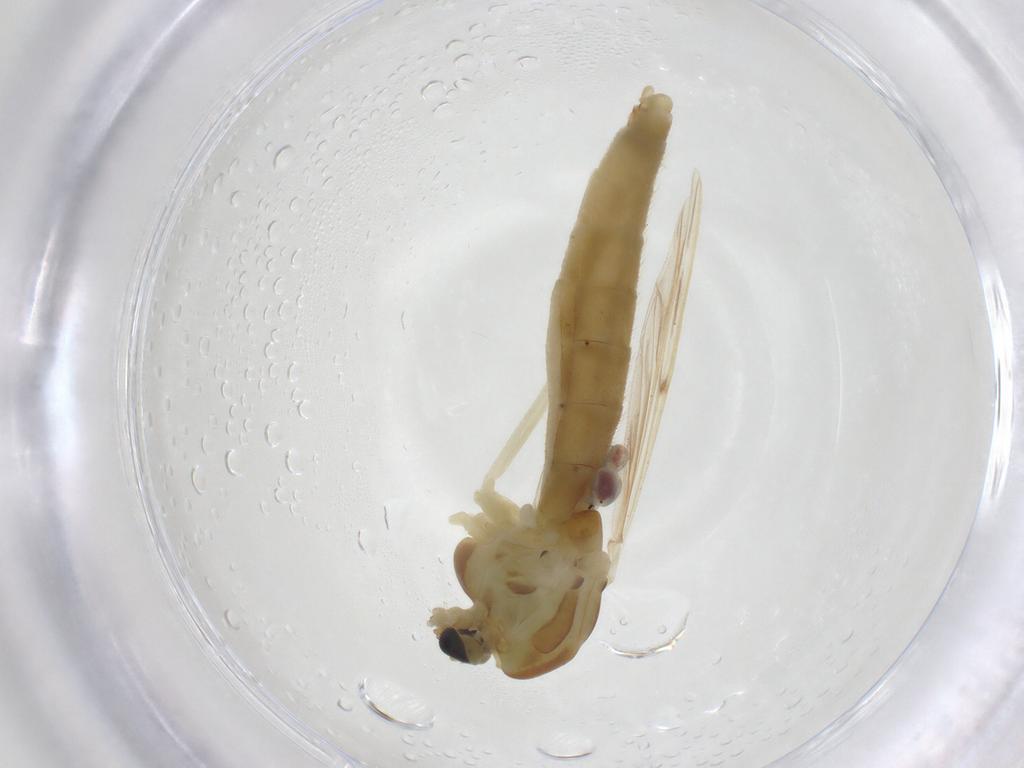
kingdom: Animalia
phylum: Arthropoda
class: Insecta
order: Diptera
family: Chironomidae
